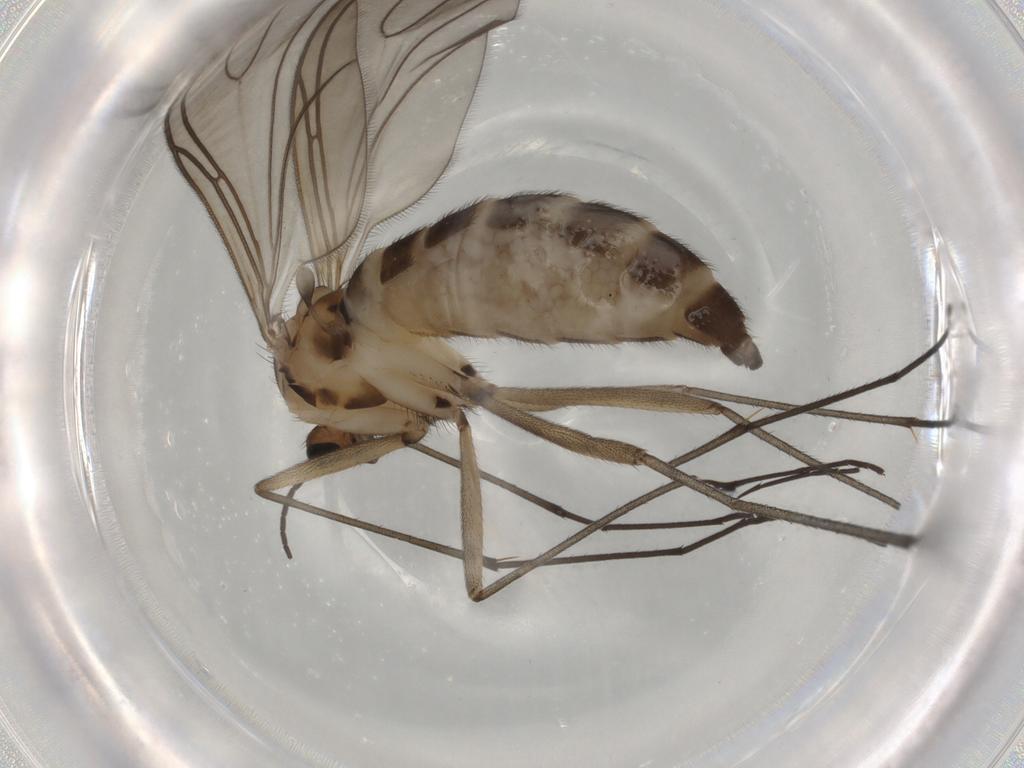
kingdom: Animalia
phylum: Arthropoda
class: Insecta
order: Diptera
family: Sciaridae
